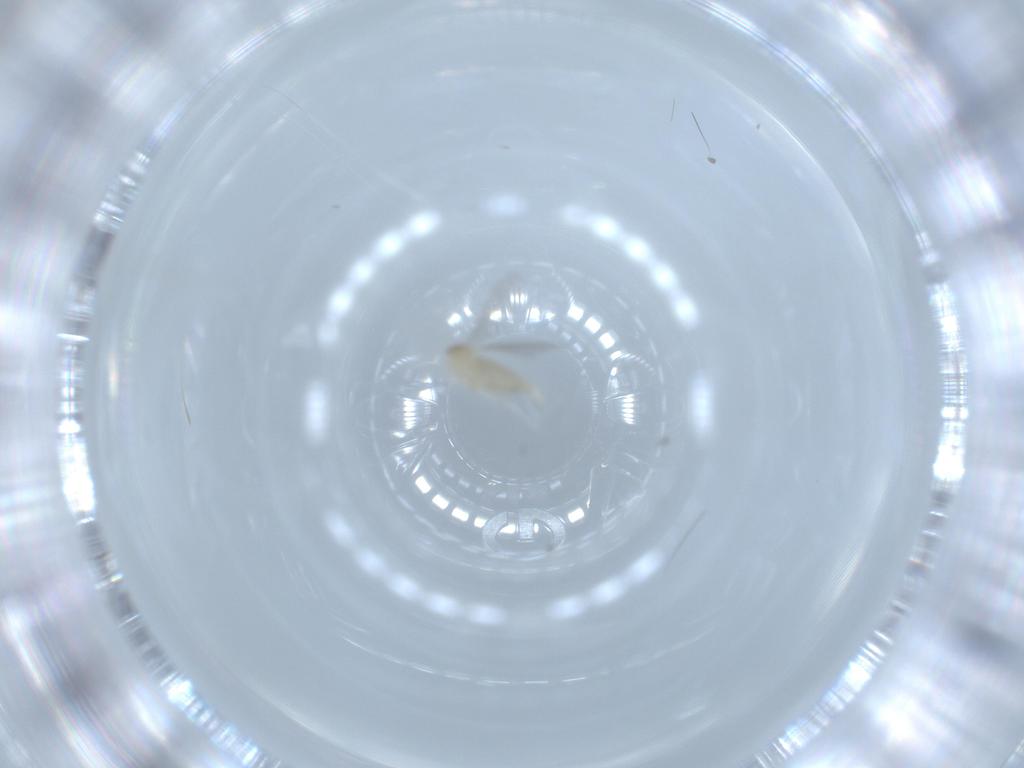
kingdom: Animalia
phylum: Arthropoda
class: Insecta
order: Diptera
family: Cecidomyiidae
